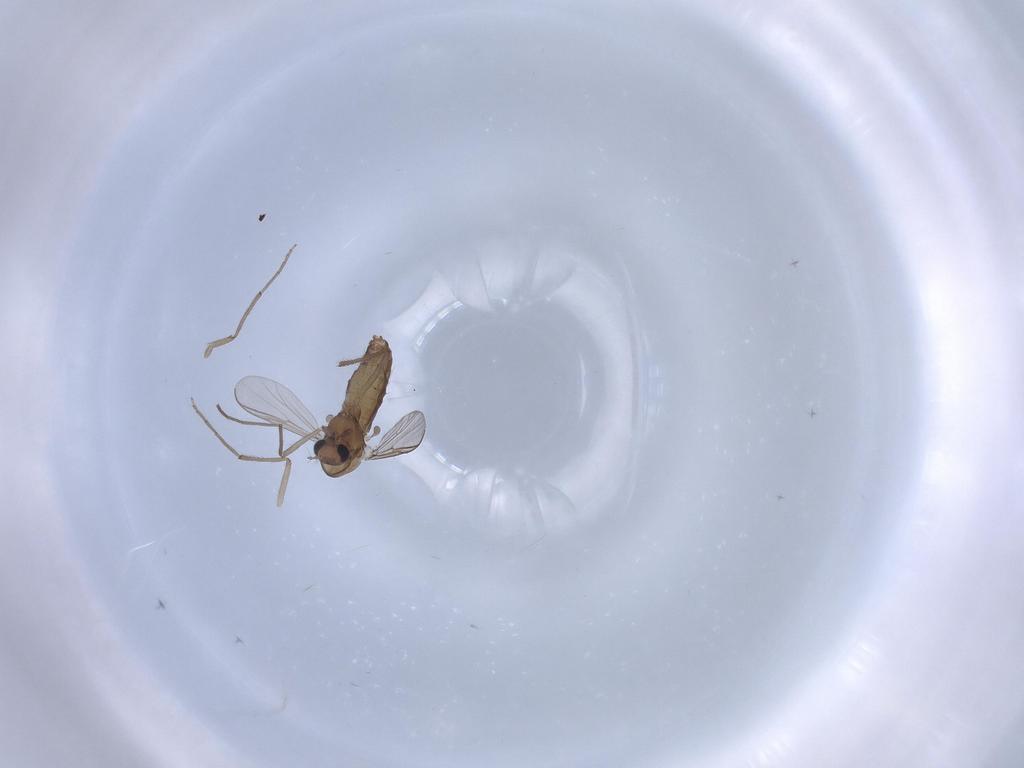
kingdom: Animalia
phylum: Arthropoda
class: Insecta
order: Diptera
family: Chironomidae
